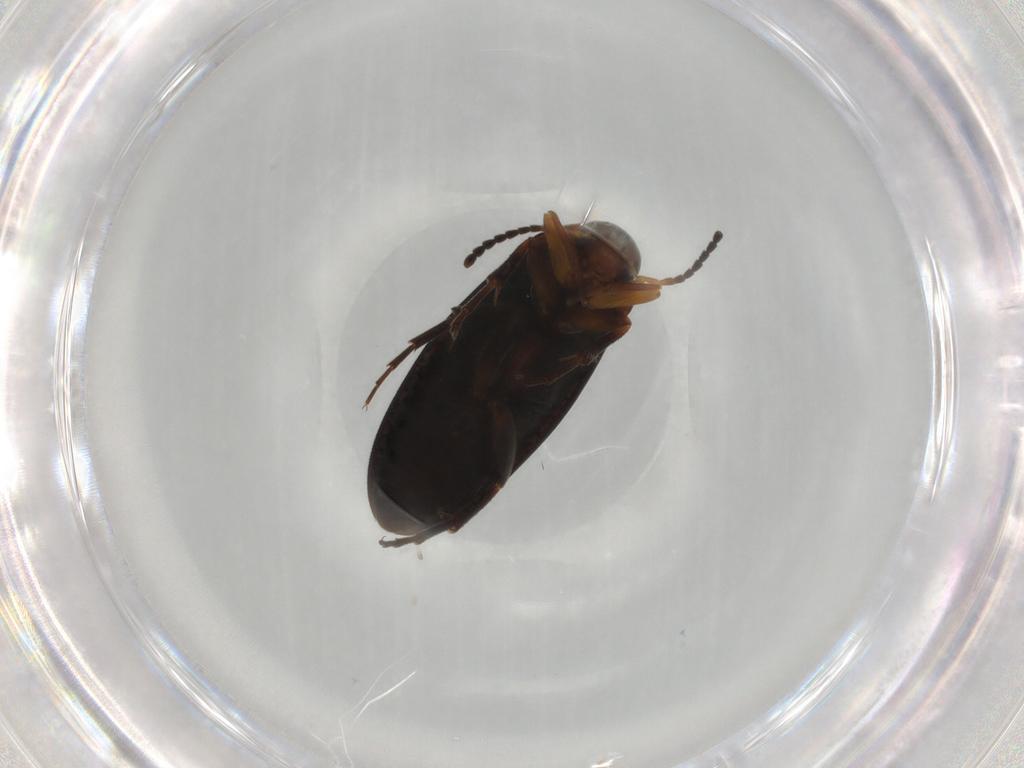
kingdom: Animalia
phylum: Arthropoda
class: Insecta
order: Coleoptera
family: Scraptiidae
